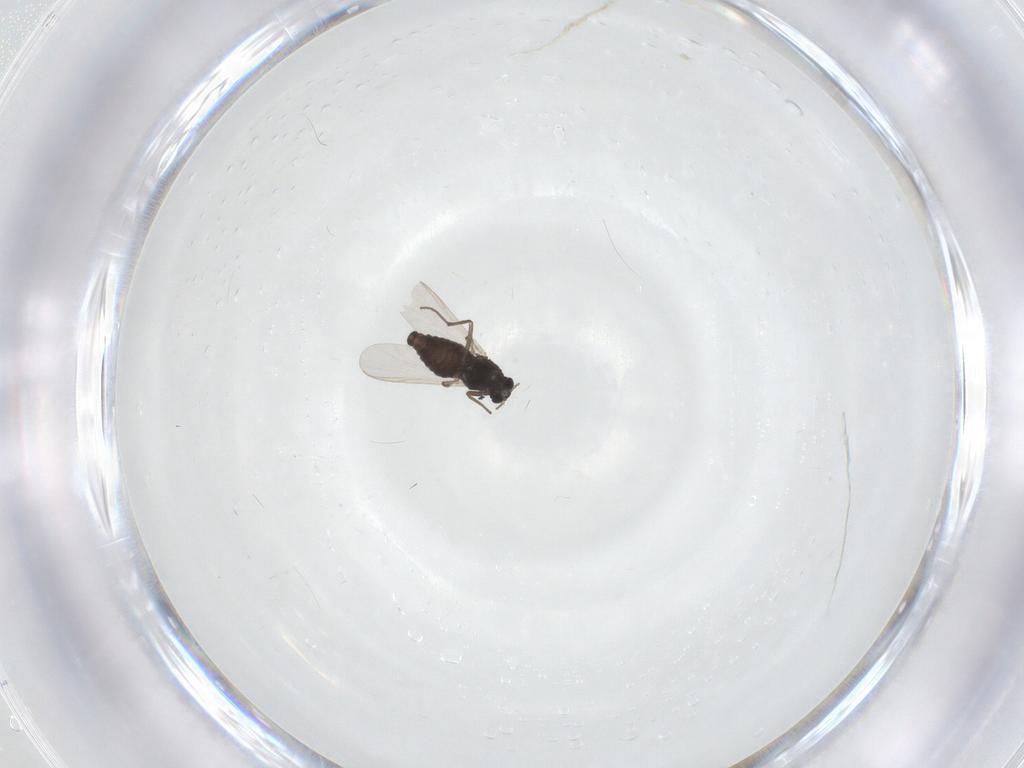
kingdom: Animalia
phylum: Arthropoda
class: Insecta
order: Diptera
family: Chironomidae
